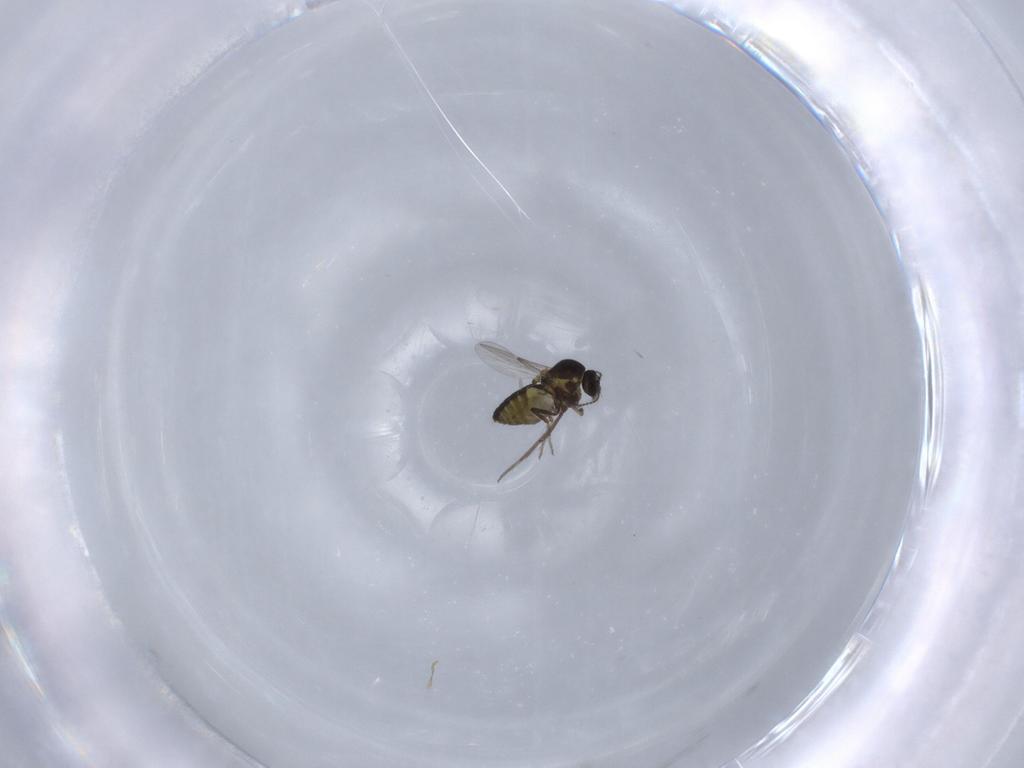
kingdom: Animalia
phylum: Arthropoda
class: Insecta
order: Diptera
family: Ceratopogonidae
